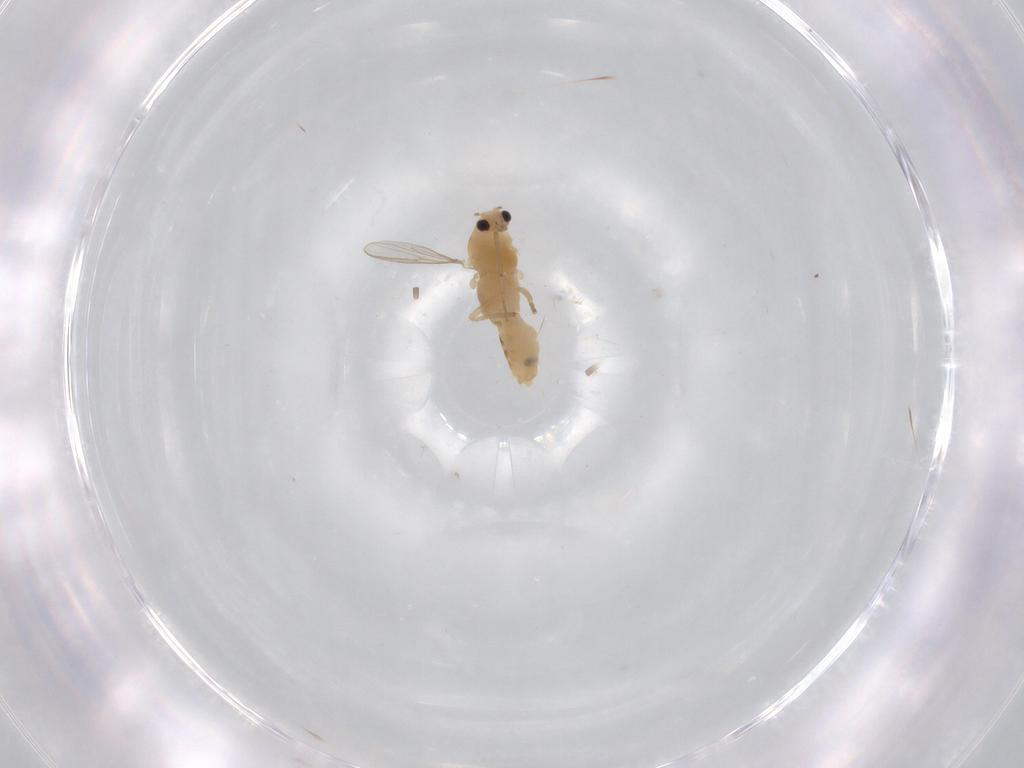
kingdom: Animalia
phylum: Arthropoda
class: Insecta
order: Diptera
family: Chironomidae
